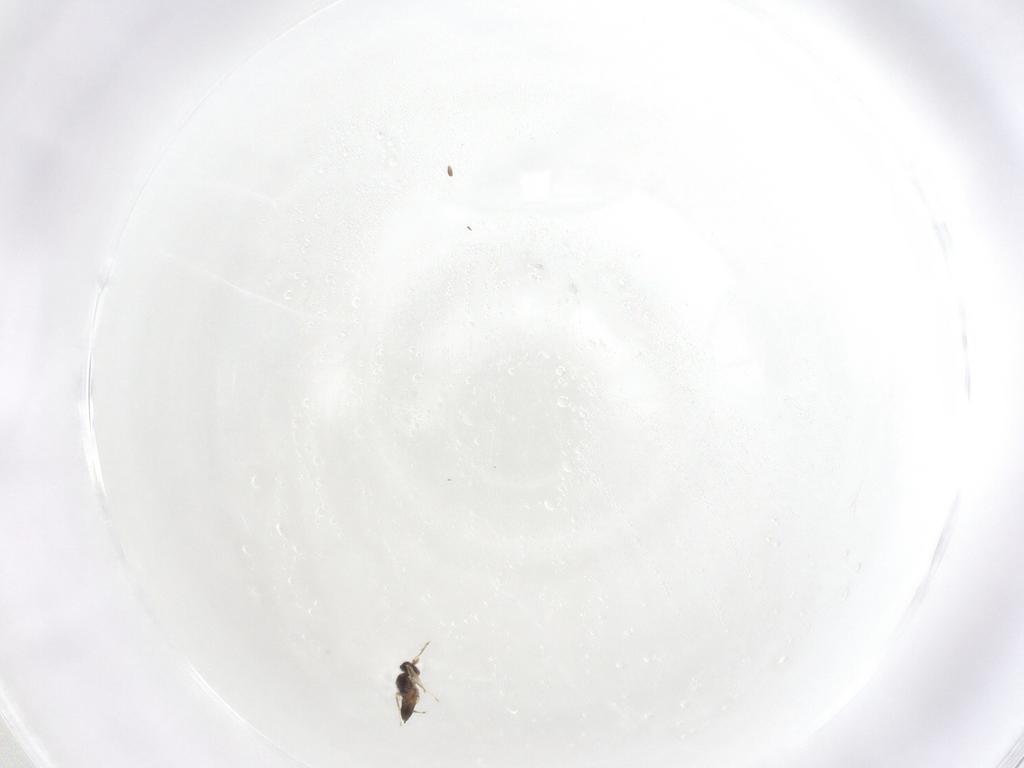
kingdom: Animalia
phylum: Arthropoda
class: Insecta
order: Hymenoptera
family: Mymaridae
